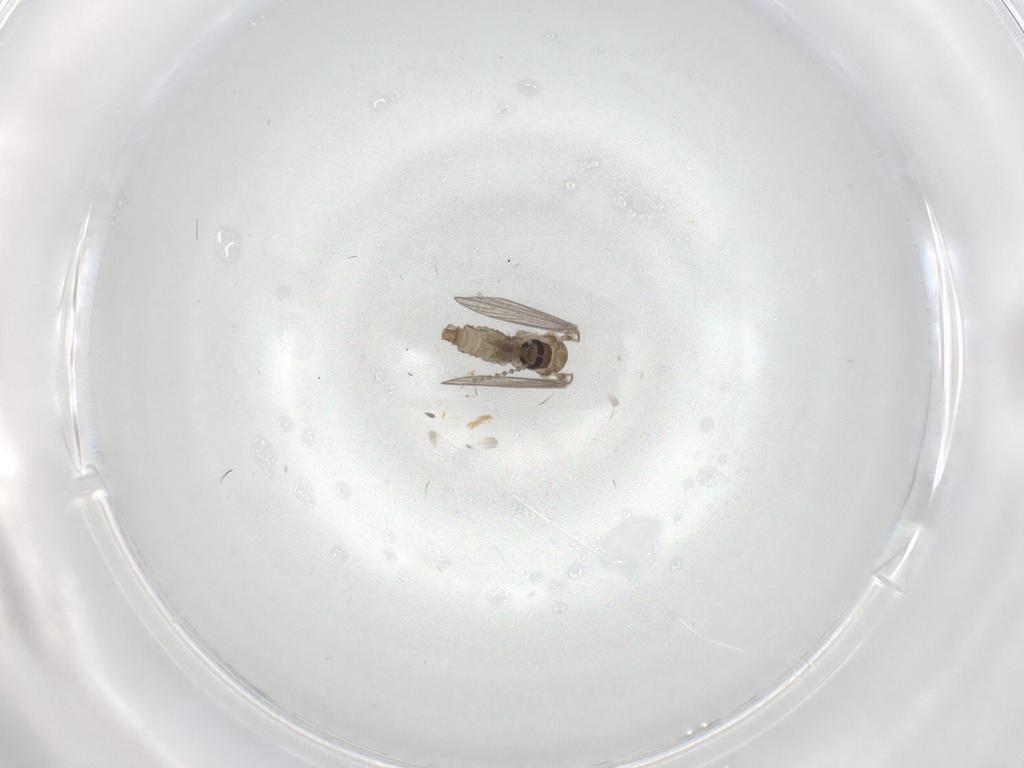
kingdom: Animalia
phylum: Arthropoda
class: Insecta
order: Diptera
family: Psychodidae
